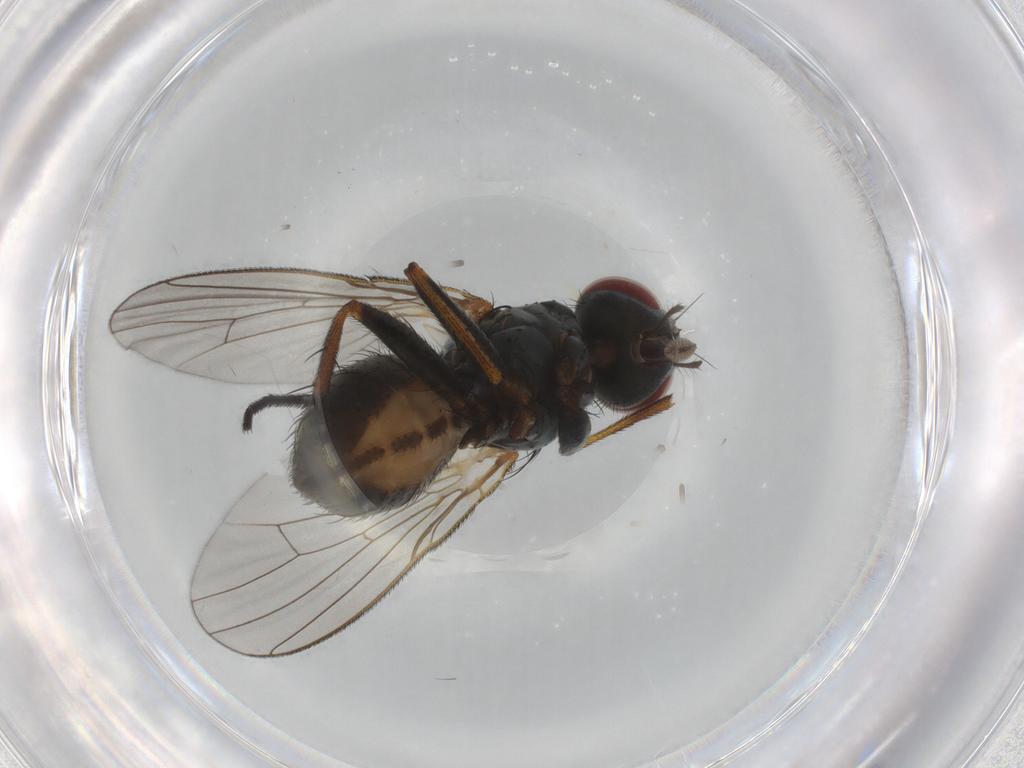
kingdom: Animalia
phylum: Arthropoda
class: Insecta
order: Diptera
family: Muscidae
